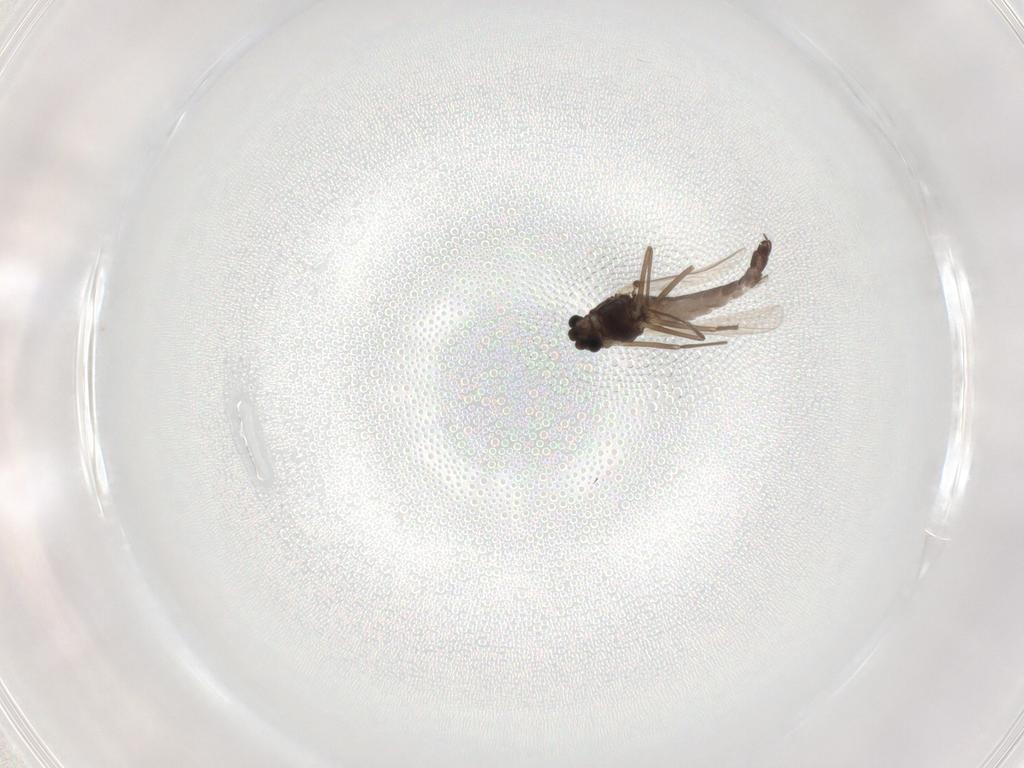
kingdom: Animalia
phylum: Arthropoda
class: Insecta
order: Diptera
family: Chironomidae
